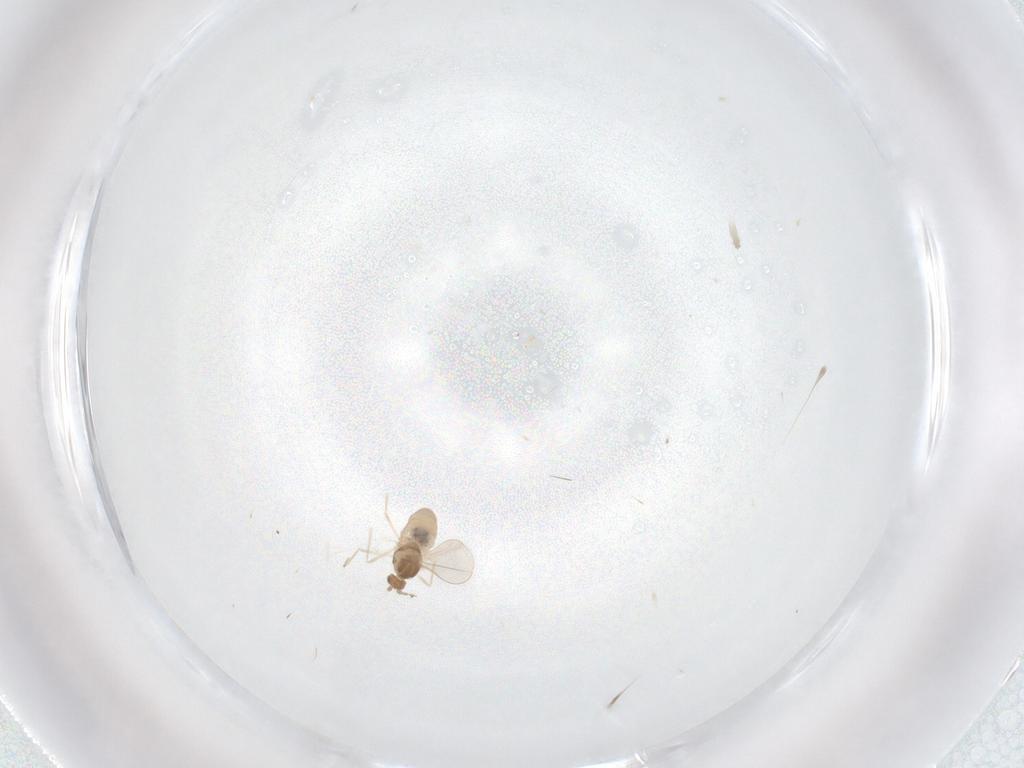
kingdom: Animalia
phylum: Arthropoda
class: Insecta
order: Diptera
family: Cecidomyiidae
